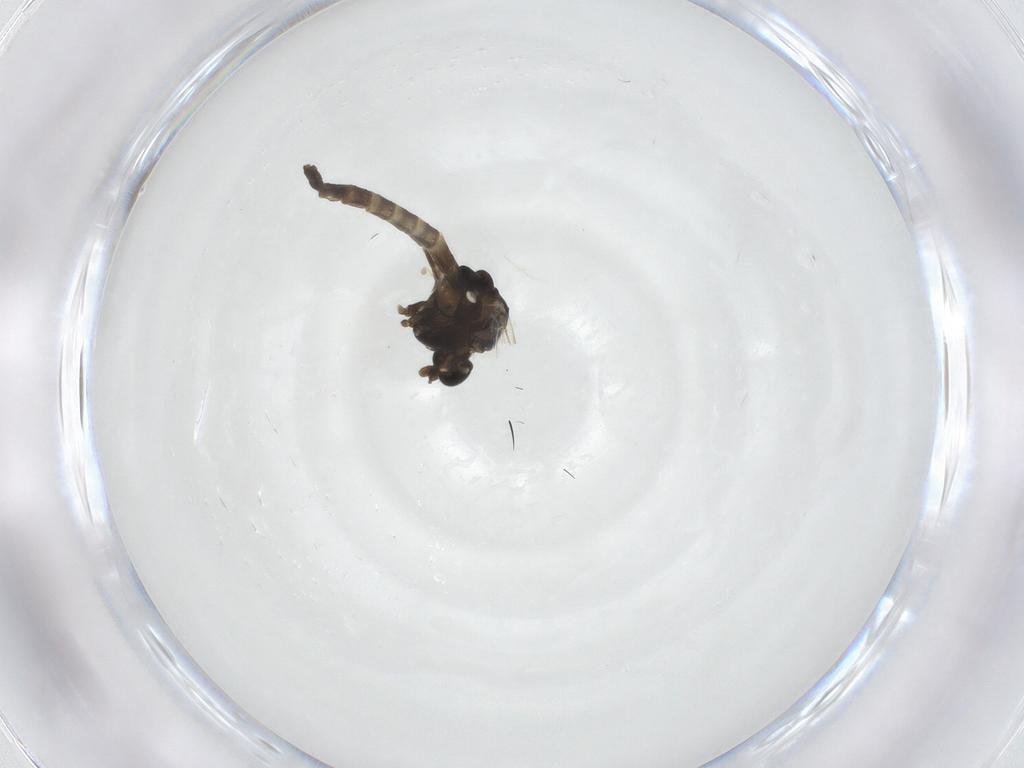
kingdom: Animalia
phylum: Arthropoda
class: Insecta
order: Diptera
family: Chironomidae
